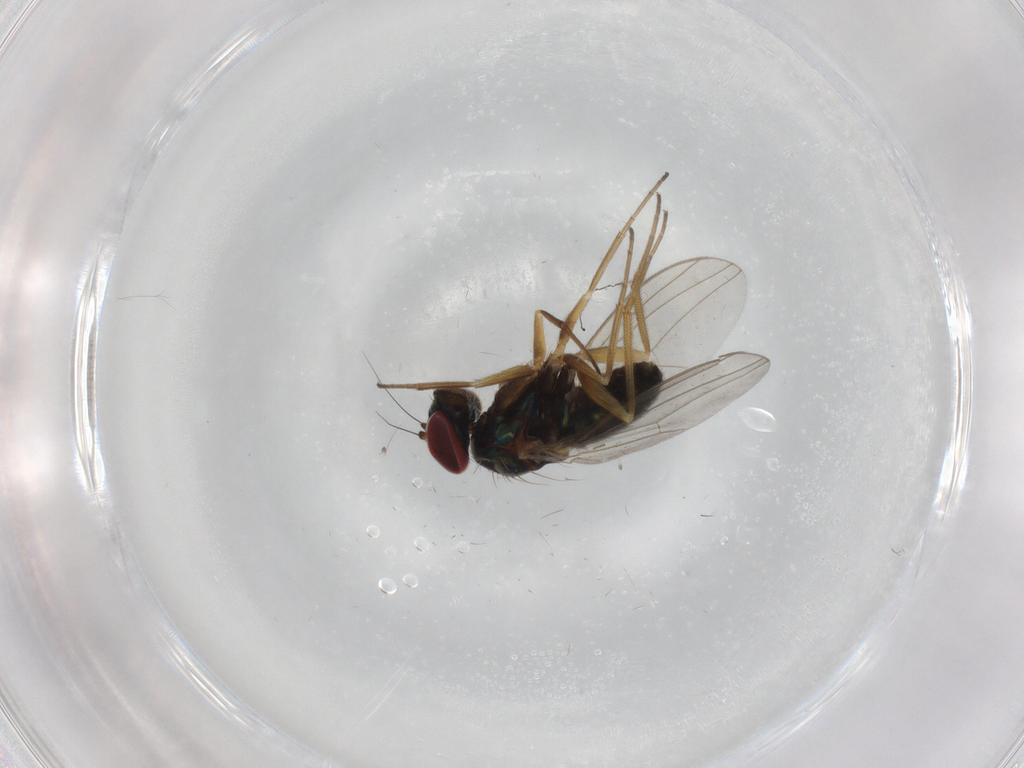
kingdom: Animalia
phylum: Arthropoda
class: Insecta
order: Diptera
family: Dolichopodidae
